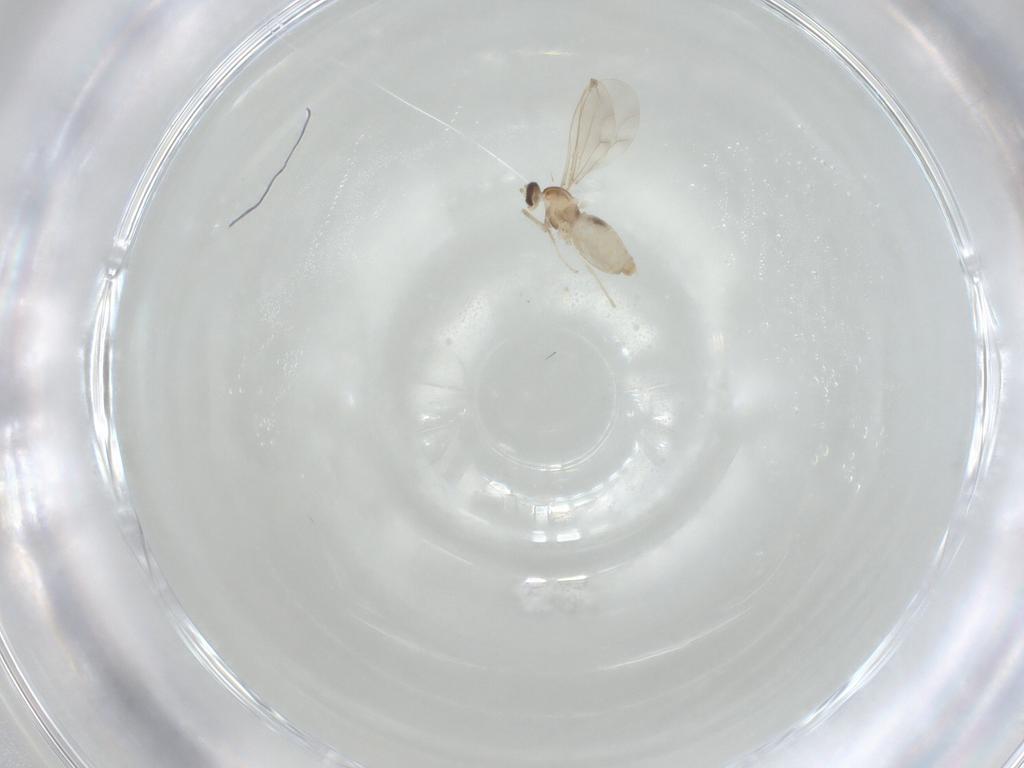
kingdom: Animalia
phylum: Arthropoda
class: Insecta
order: Diptera
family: Cecidomyiidae
